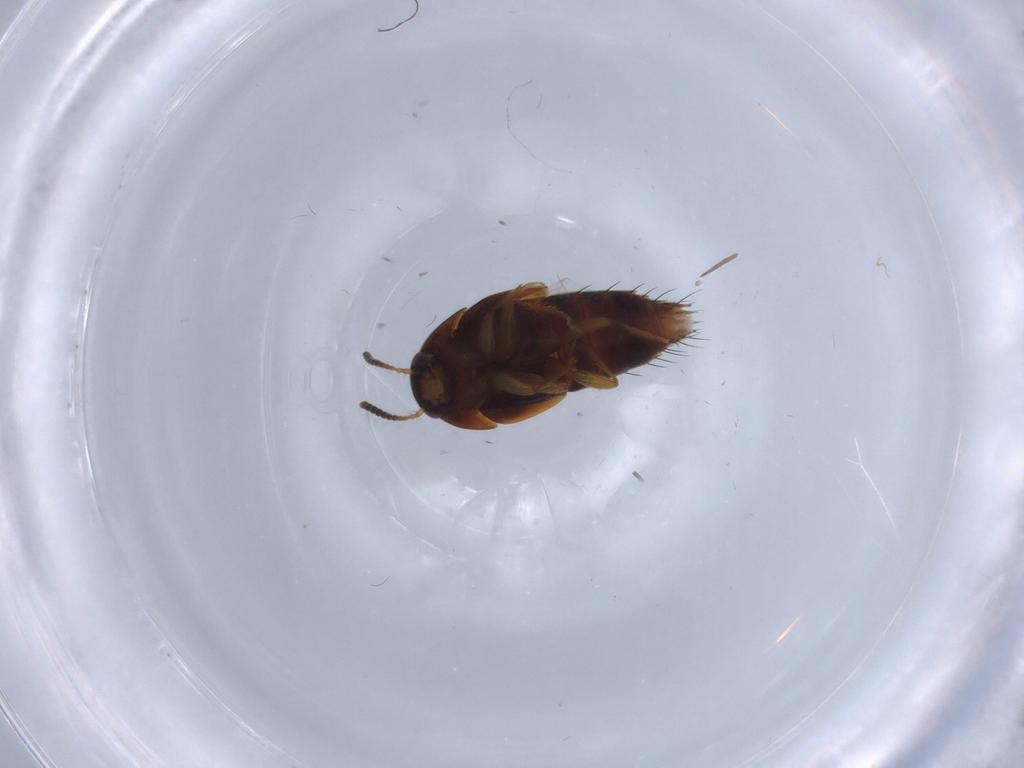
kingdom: Animalia
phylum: Arthropoda
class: Insecta
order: Coleoptera
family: Staphylinidae
